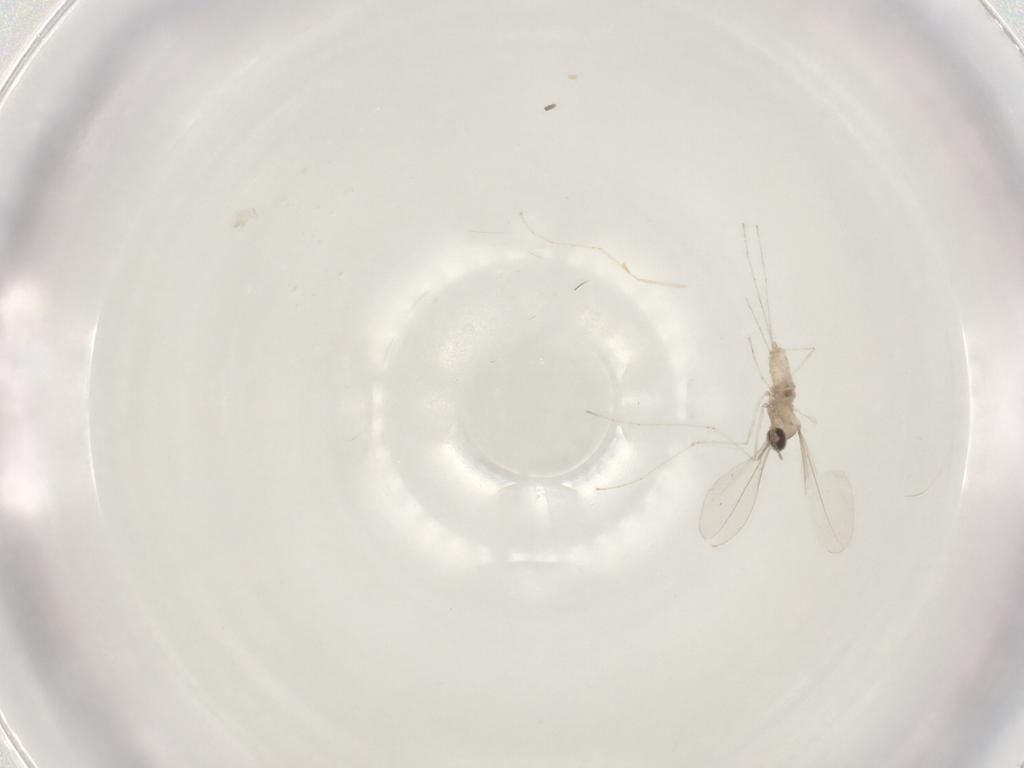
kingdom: Animalia
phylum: Arthropoda
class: Insecta
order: Diptera
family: Cecidomyiidae
